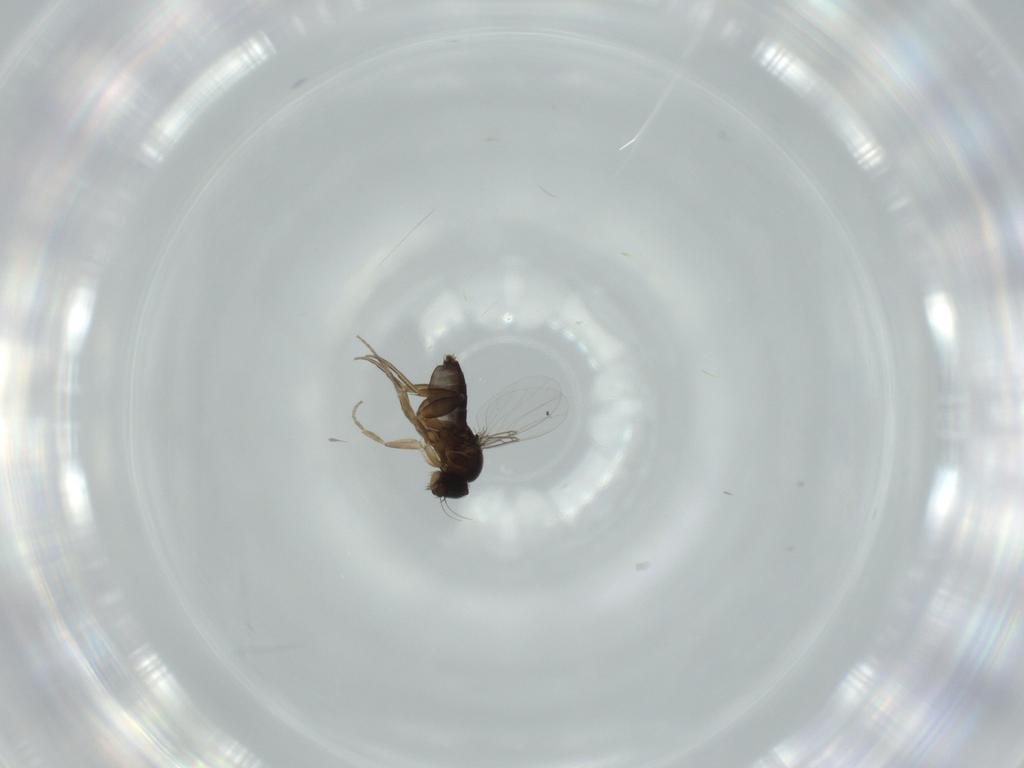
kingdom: Animalia
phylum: Arthropoda
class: Insecta
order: Diptera
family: Phoridae
